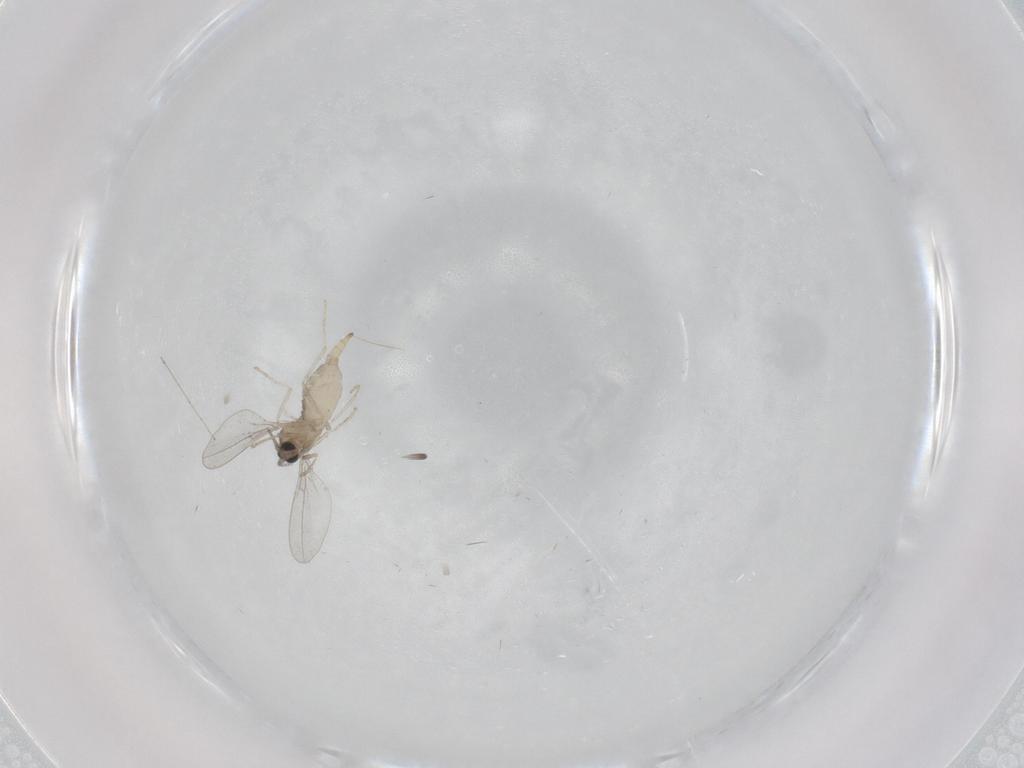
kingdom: Animalia
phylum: Arthropoda
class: Insecta
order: Diptera
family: Cecidomyiidae
